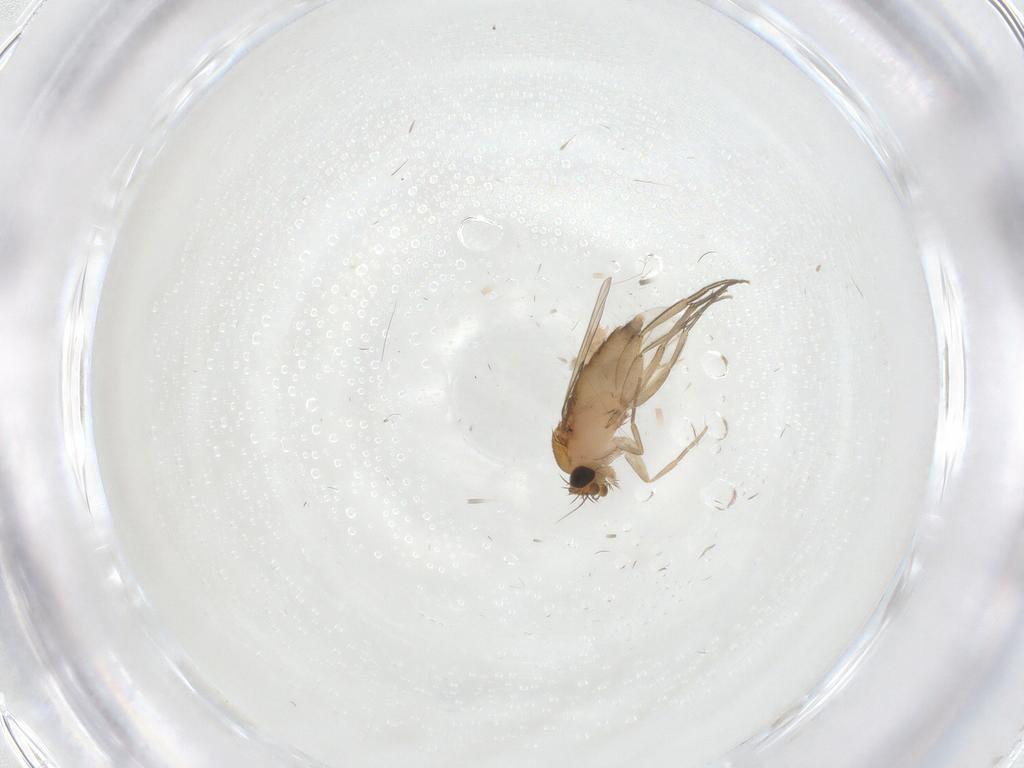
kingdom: Animalia
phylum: Arthropoda
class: Insecta
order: Diptera
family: Phoridae
